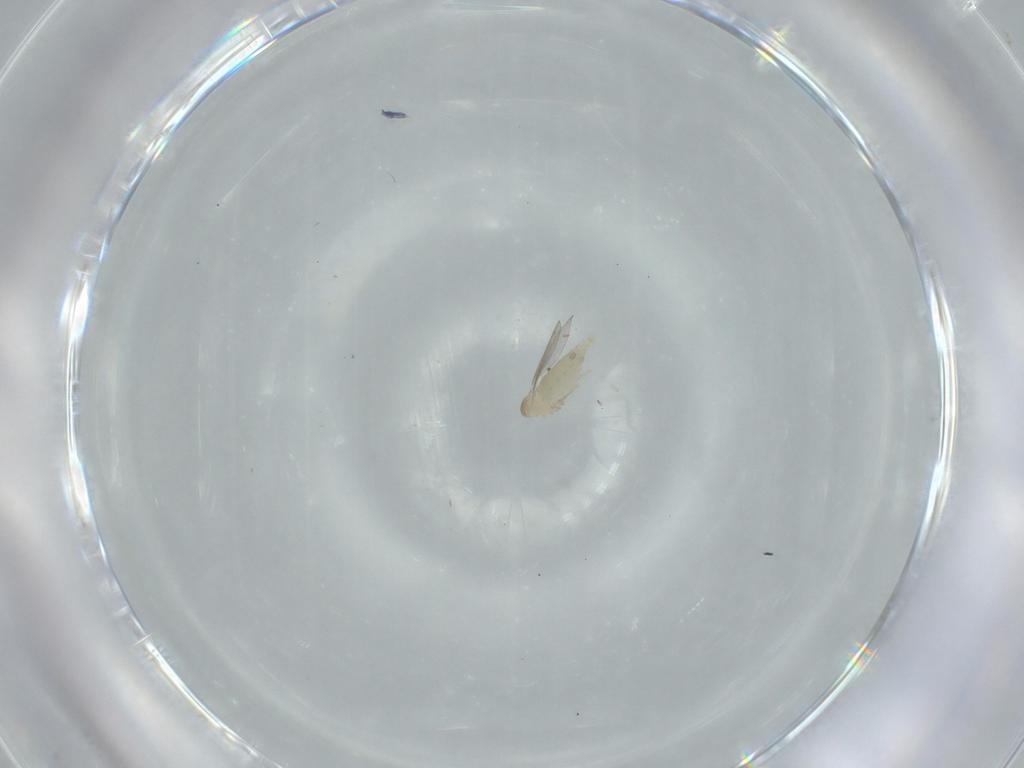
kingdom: Animalia
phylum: Arthropoda
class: Insecta
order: Diptera
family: Cecidomyiidae
